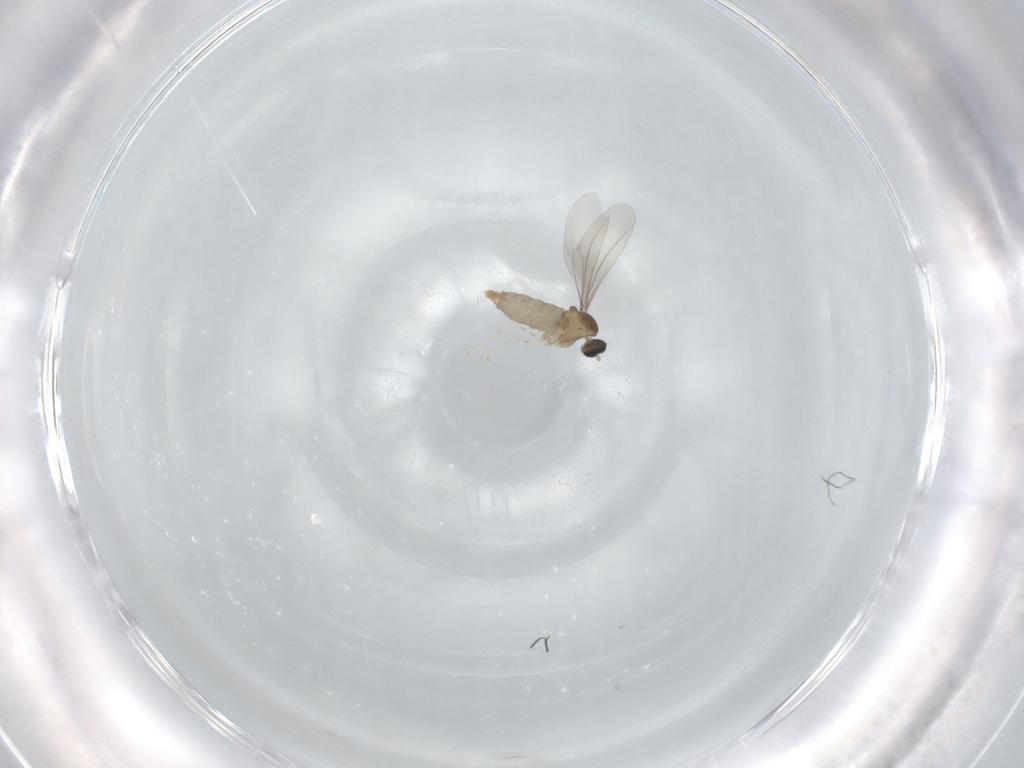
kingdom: Animalia
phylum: Arthropoda
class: Insecta
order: Diptera
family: Cecidomyiidae
